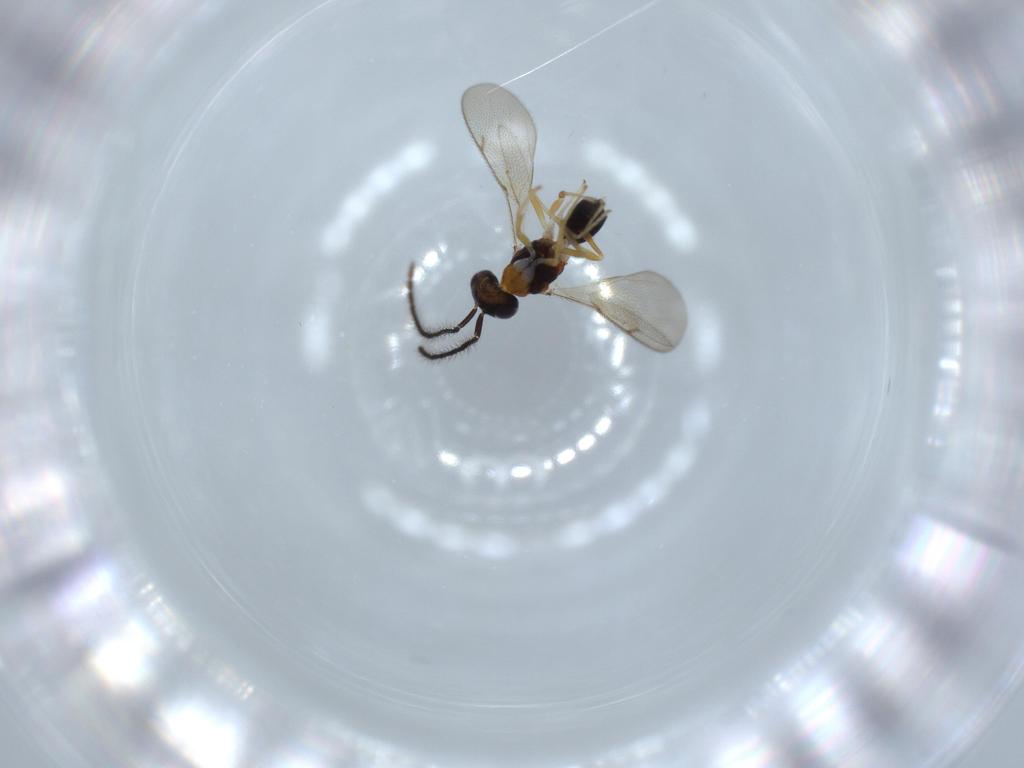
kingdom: Animalia
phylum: Arthropoda
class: Insecta
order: Hymenoptera
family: Diparidae
